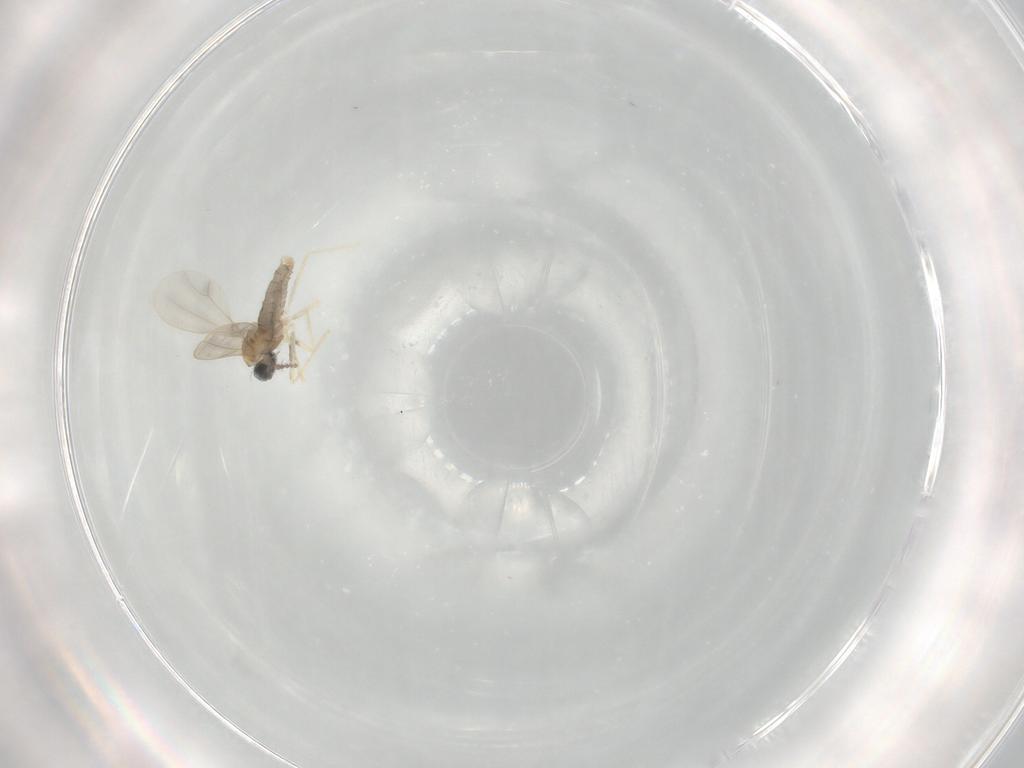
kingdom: Animalia
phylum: Arthropoda
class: Insecta
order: Diptera
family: Cecidomyiidae
